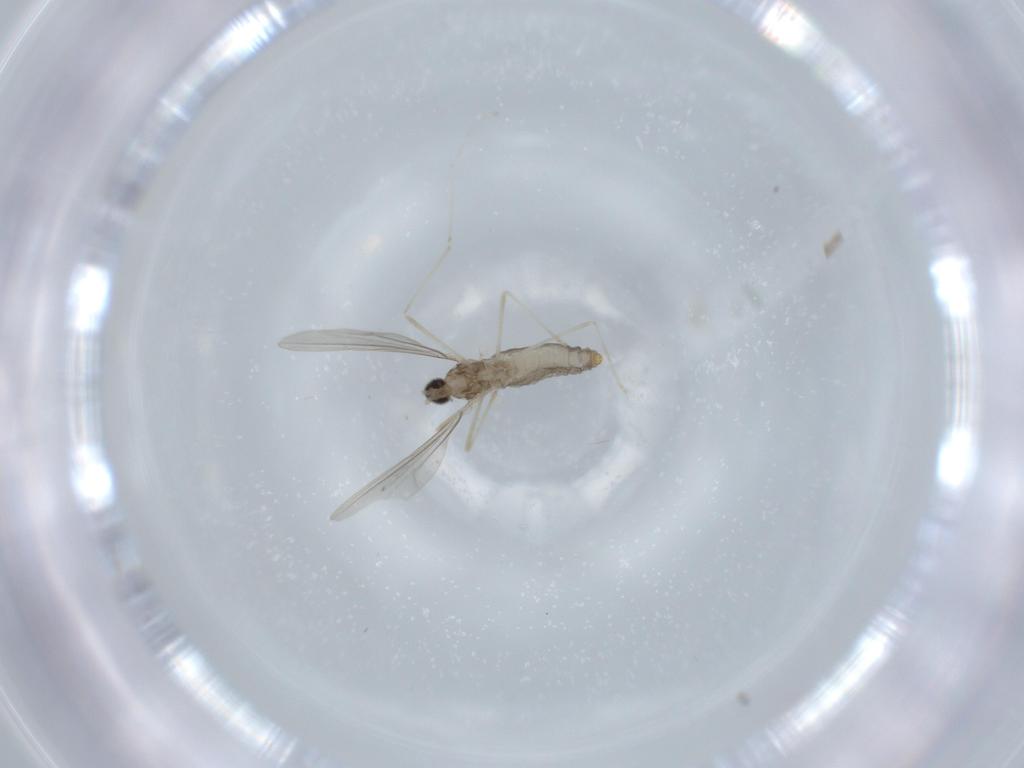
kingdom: Animalia
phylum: Arthropoda
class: Insecta
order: Diptera
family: Cecidomyiidae
